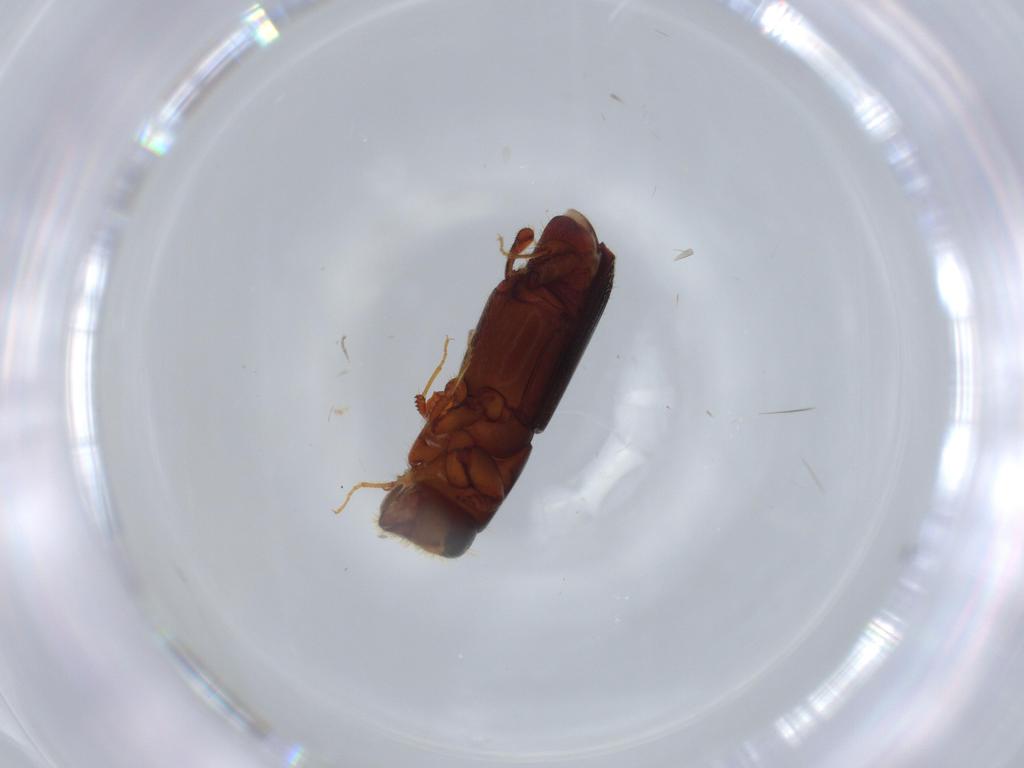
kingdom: Animalia
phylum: Arthropoda
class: Insecta
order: Coleoptera
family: Curculionidae
